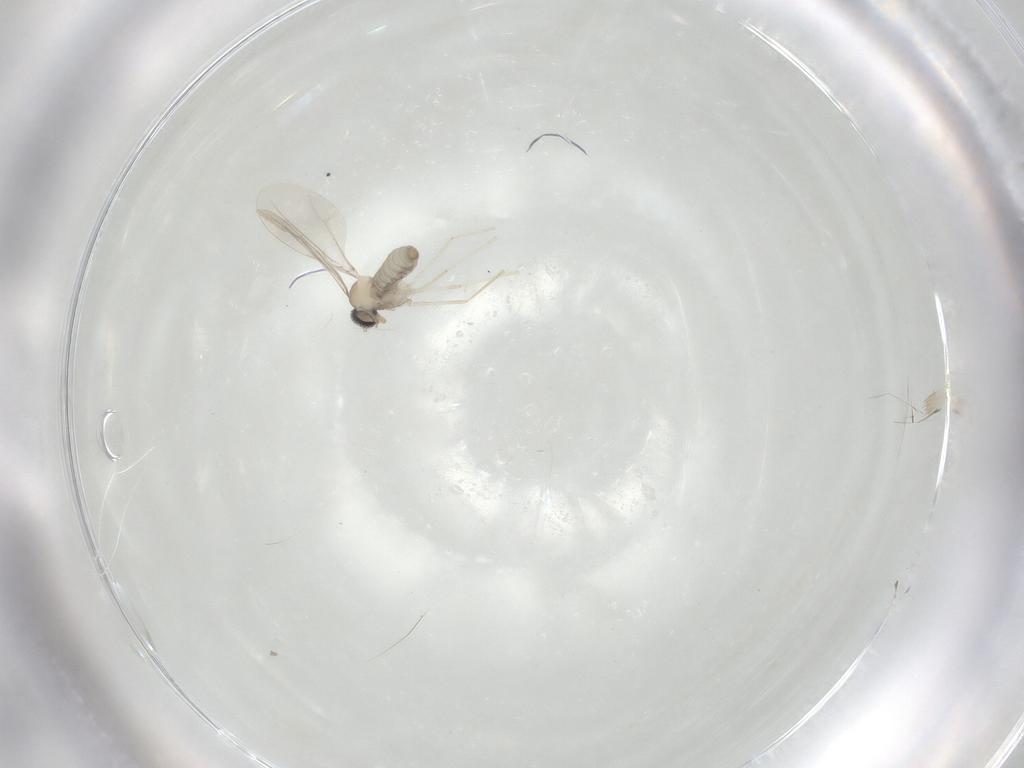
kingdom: Animalia
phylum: Arthropoda
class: Insecta
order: Diptera
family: Cecidomyiidae
